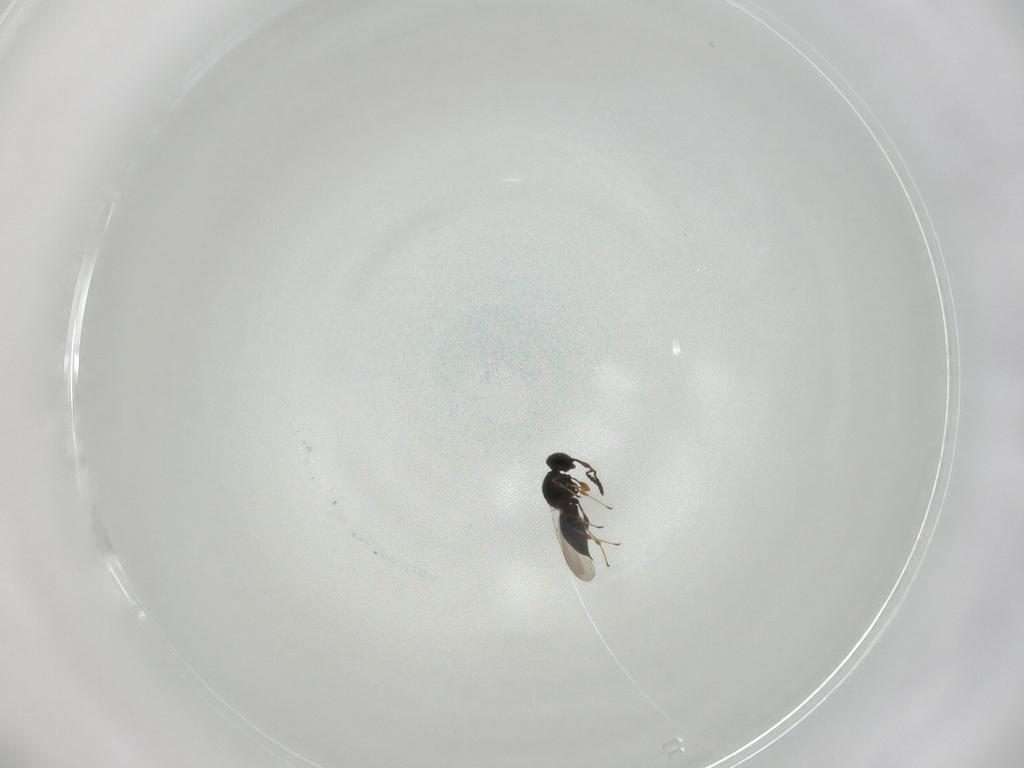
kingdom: Animalia
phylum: Arthropoda
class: Insecta
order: Hymenoptera
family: Platygastridae
